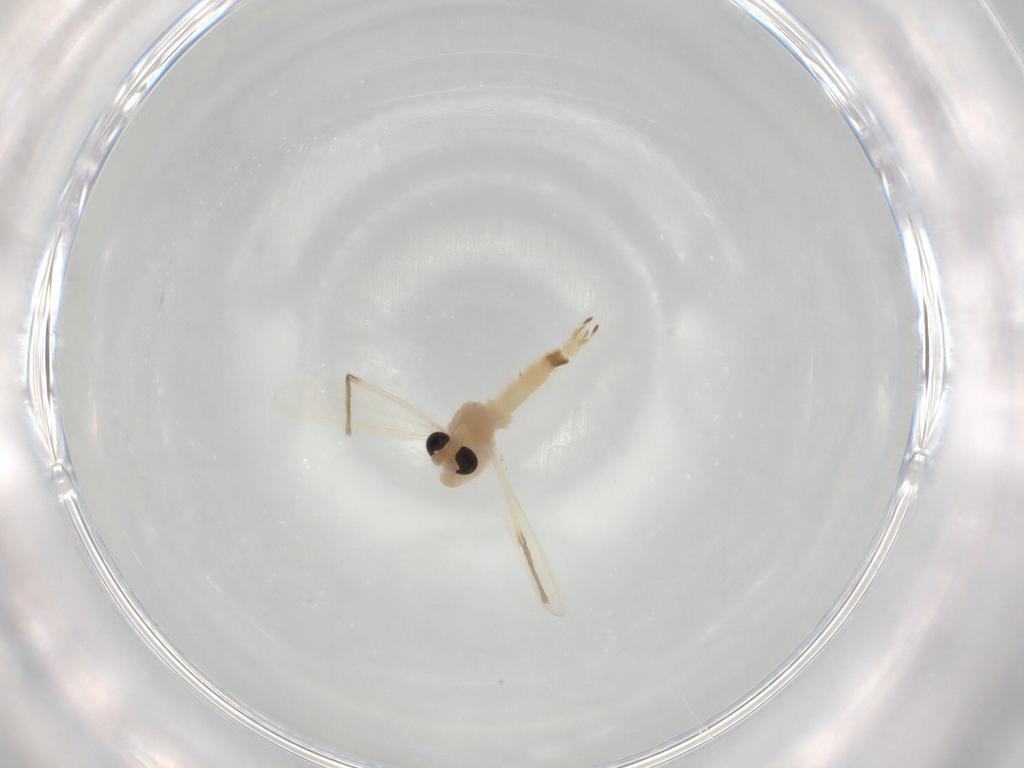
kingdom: Animalia
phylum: Arthropoda
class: Insecta
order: Diptera
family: Chironomidae
